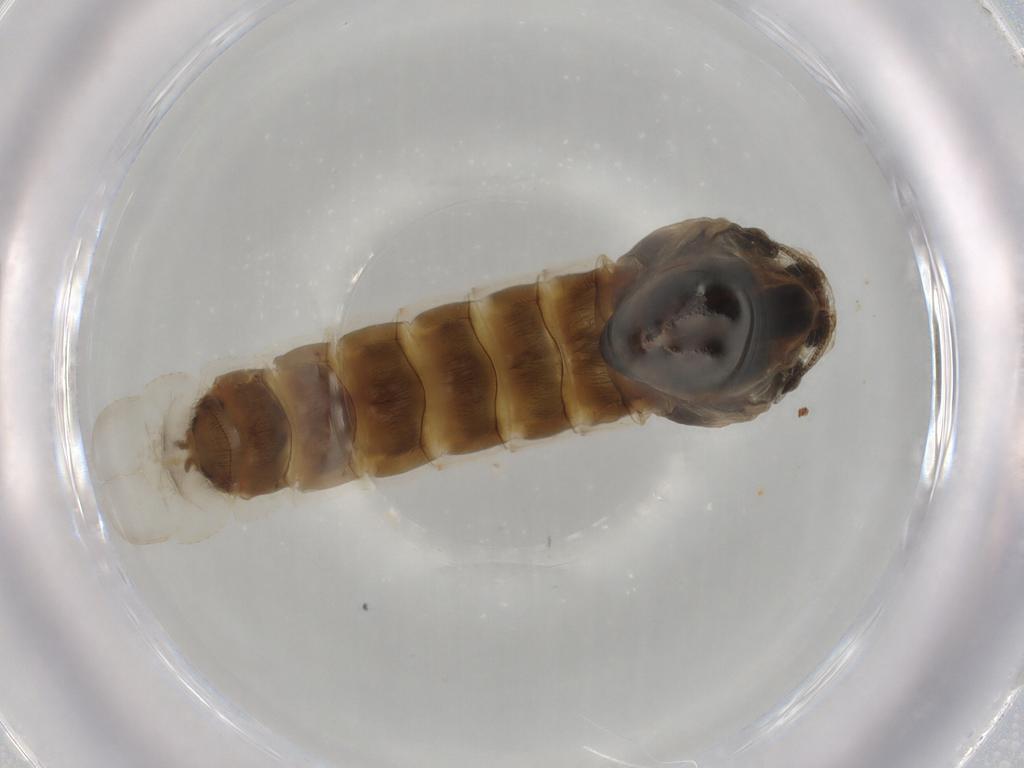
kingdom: Animalia
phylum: Arthropoda
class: Insecta
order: Diptera
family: Chironomidae
